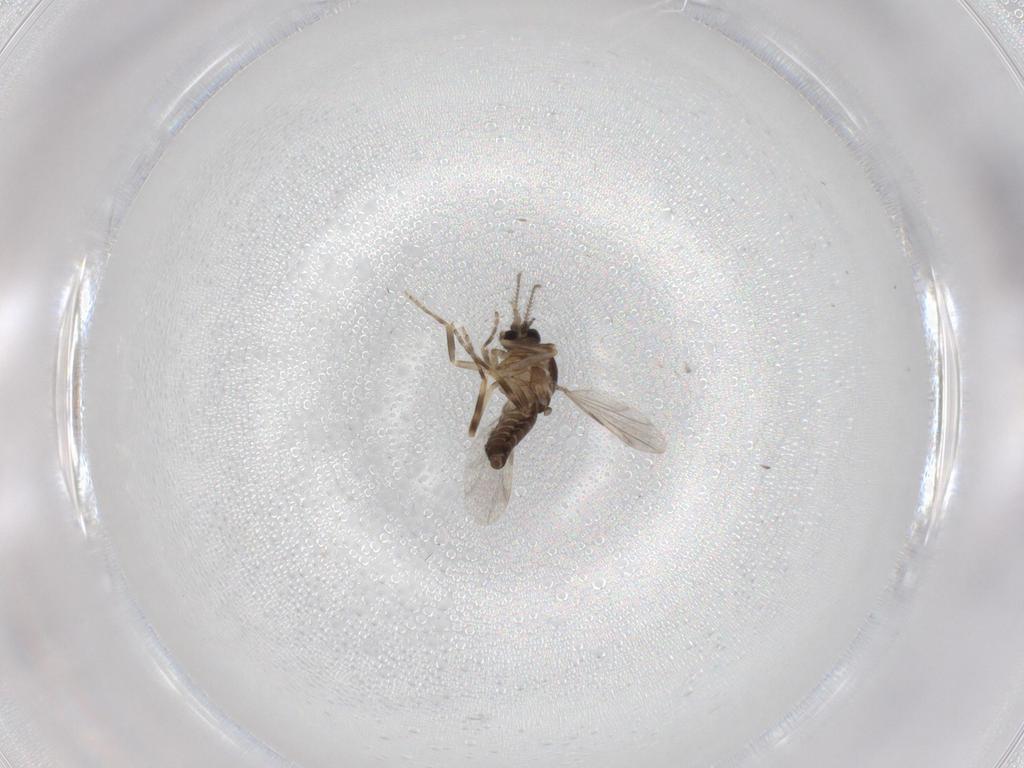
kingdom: Animalia
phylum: Arthropoda
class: Insecta
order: Diptera
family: Ceratopogonidae
